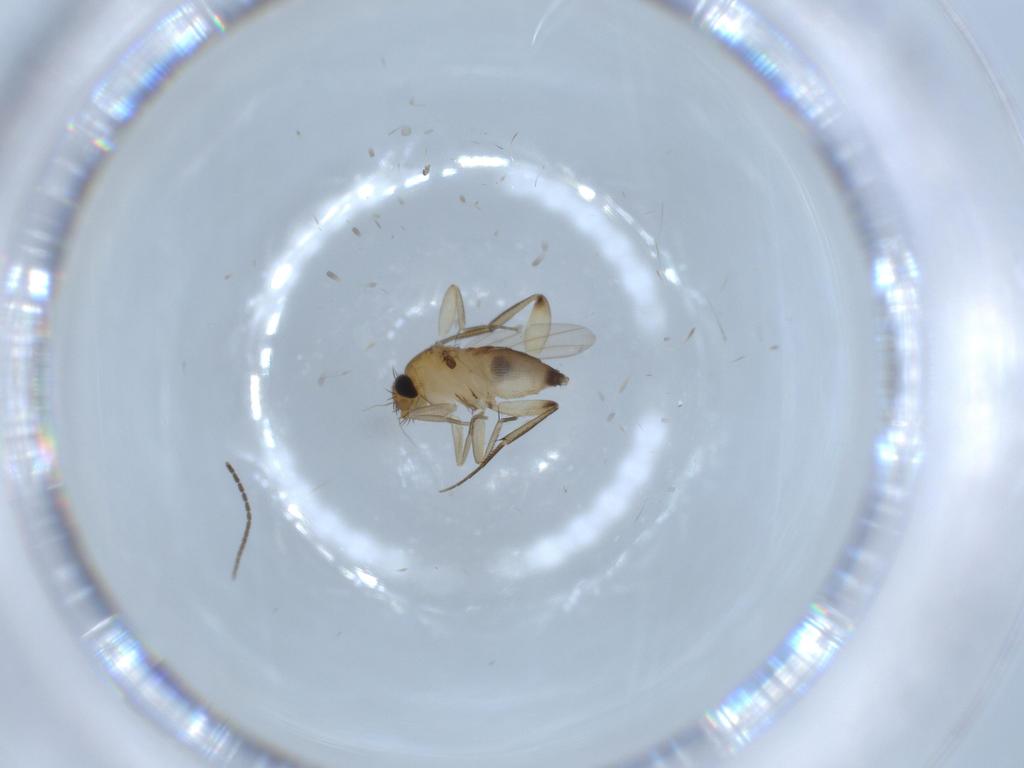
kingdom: Animalia
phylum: Arthropoda
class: Insecta
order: Diptera
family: Phoridae
